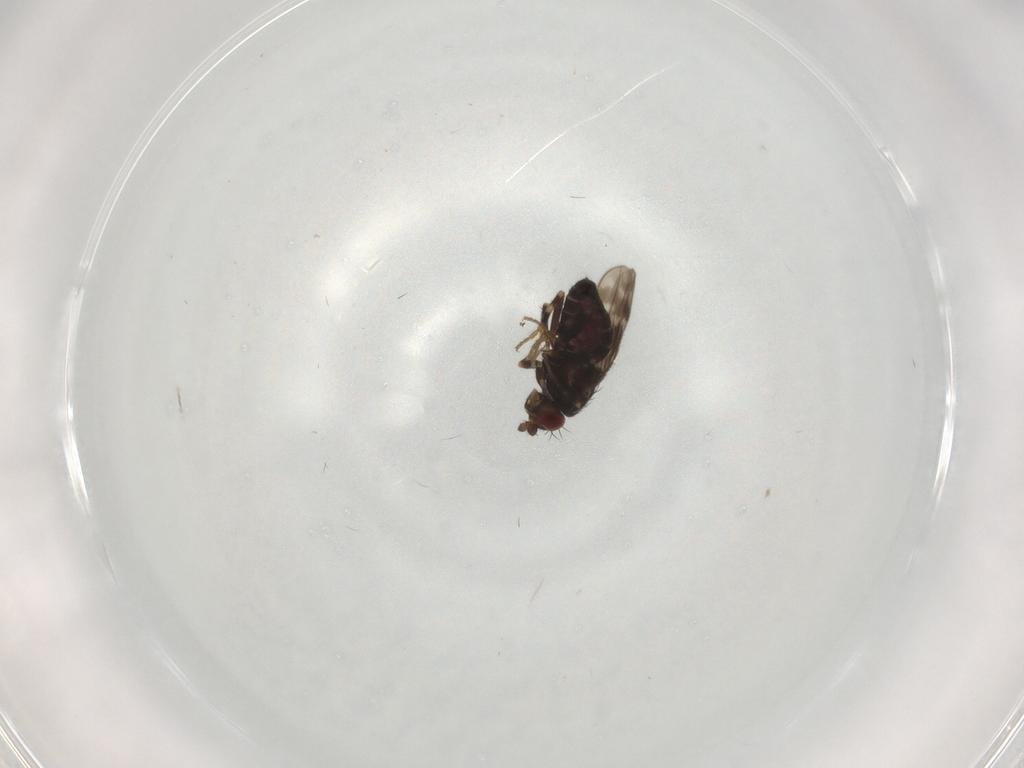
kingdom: Animalia
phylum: Arthropoda
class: Insecta
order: Diptera
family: Sphaeroceridae
